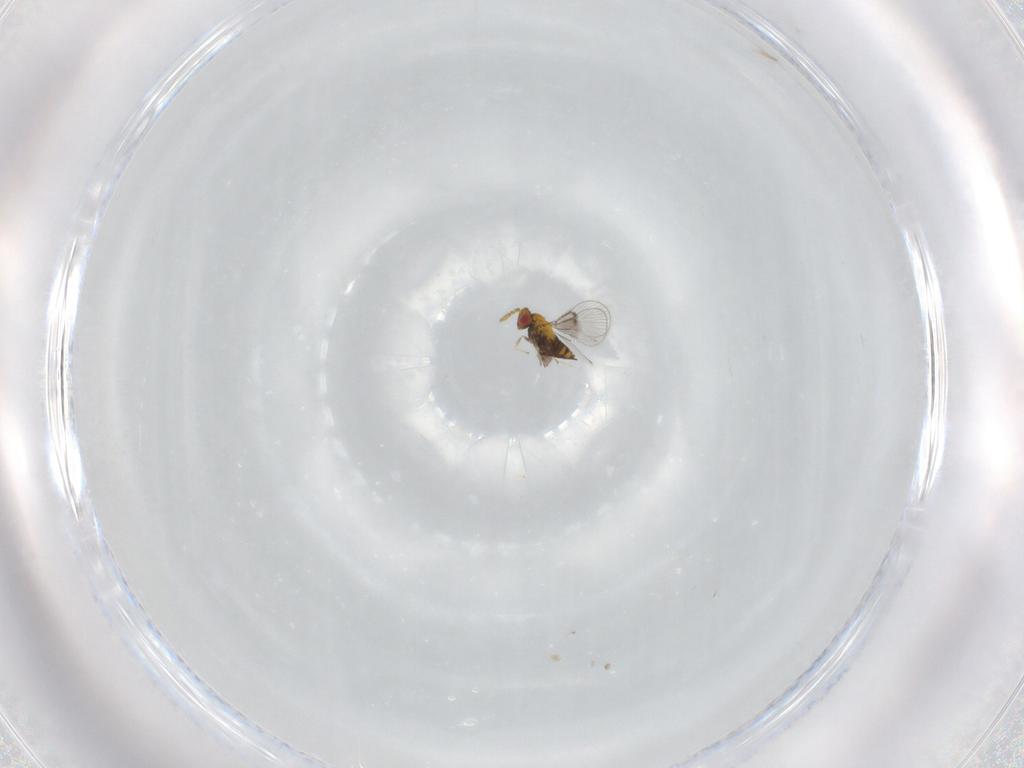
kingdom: Animalia
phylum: Arthropoda
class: Insecta
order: Hymenoptera
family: Trichogrammatidae
